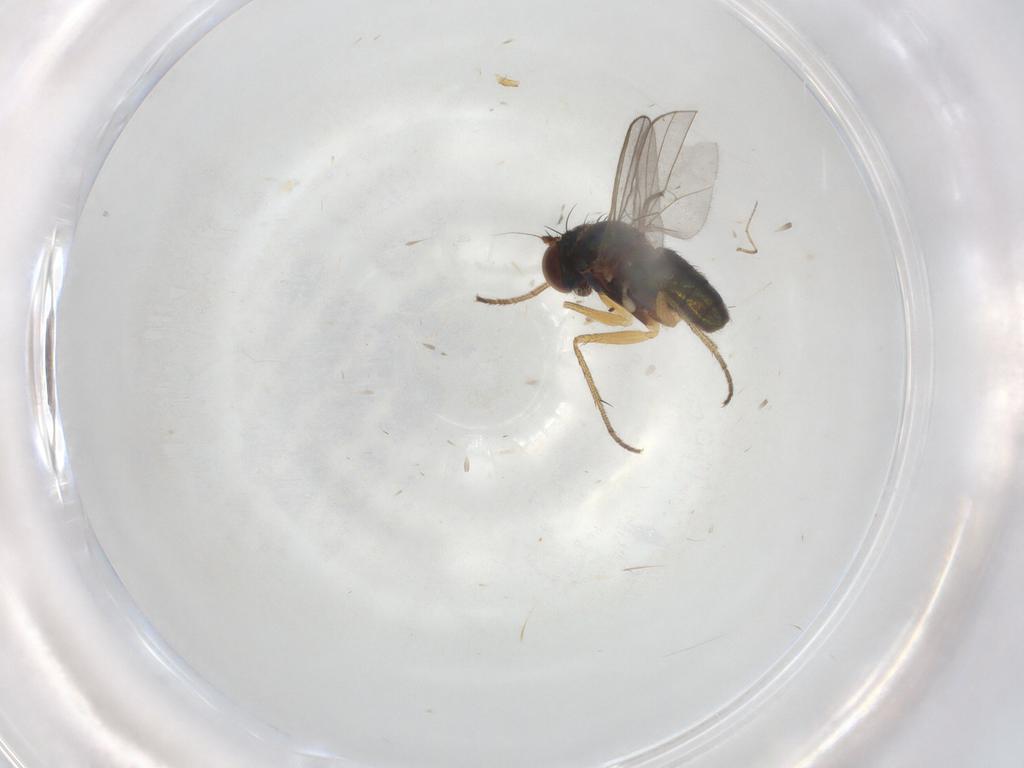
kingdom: Animalia
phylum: Arthropoda
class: Insecta
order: Diptera
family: Ceratopogonidae
